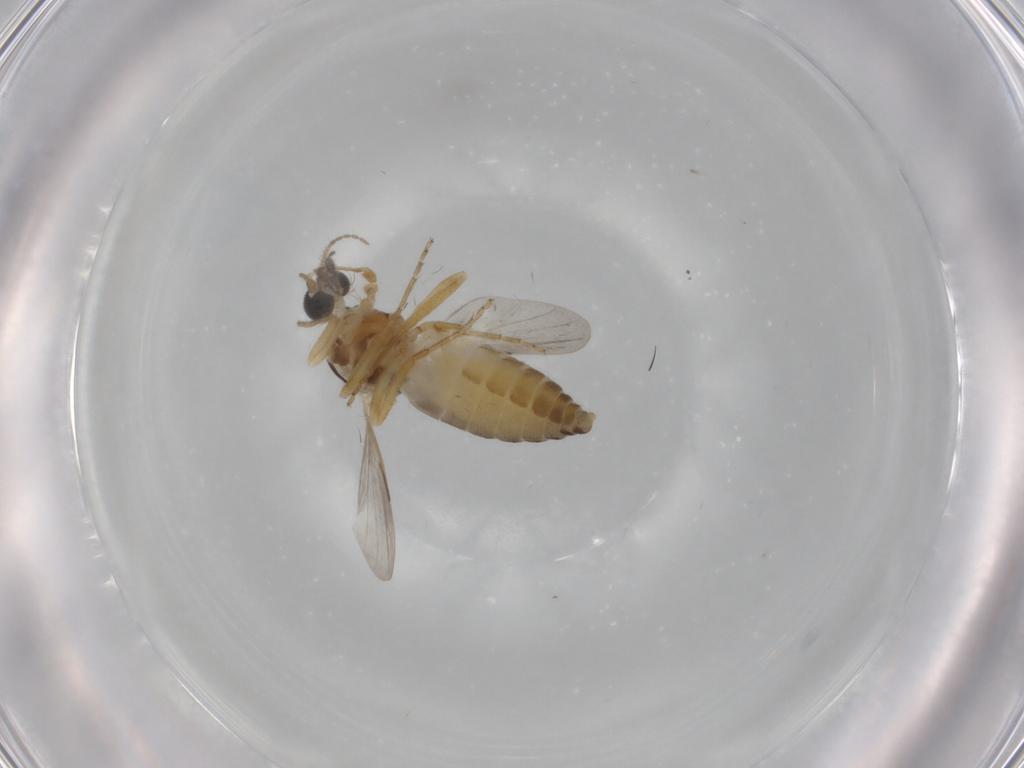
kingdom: Animalia
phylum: Arthropoda
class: Insecta
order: Diptera
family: Ceratopogonidae
